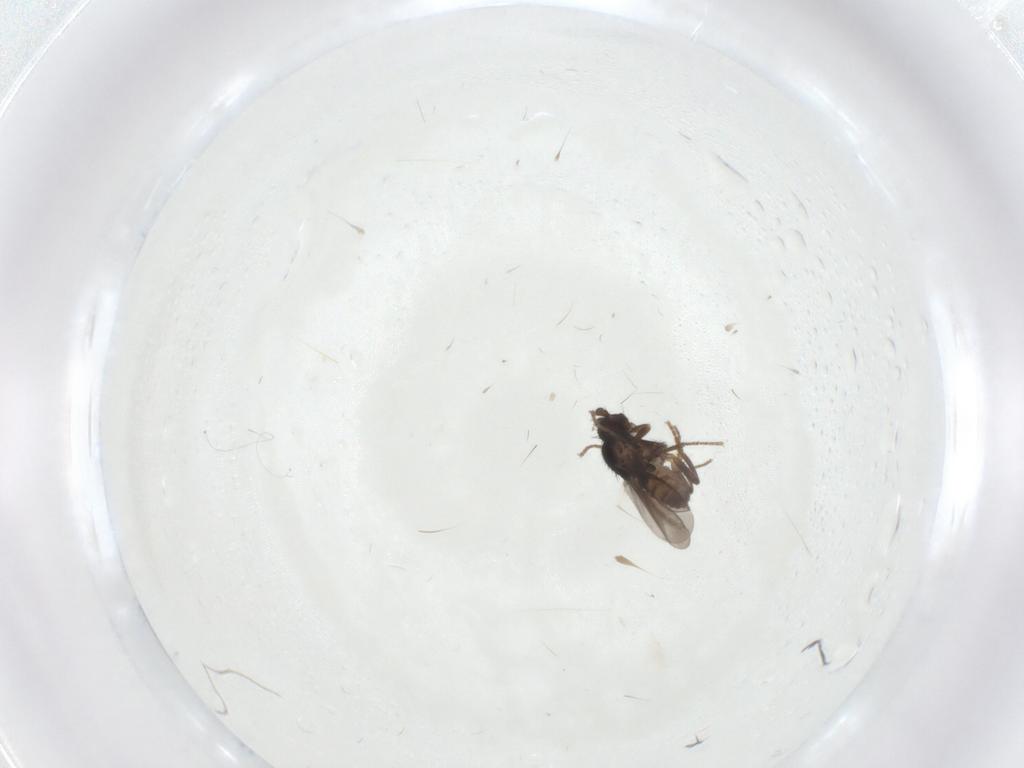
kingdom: Animalia
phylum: Arthropoda
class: Insecta
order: Diptera
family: Sphaeroceridae
